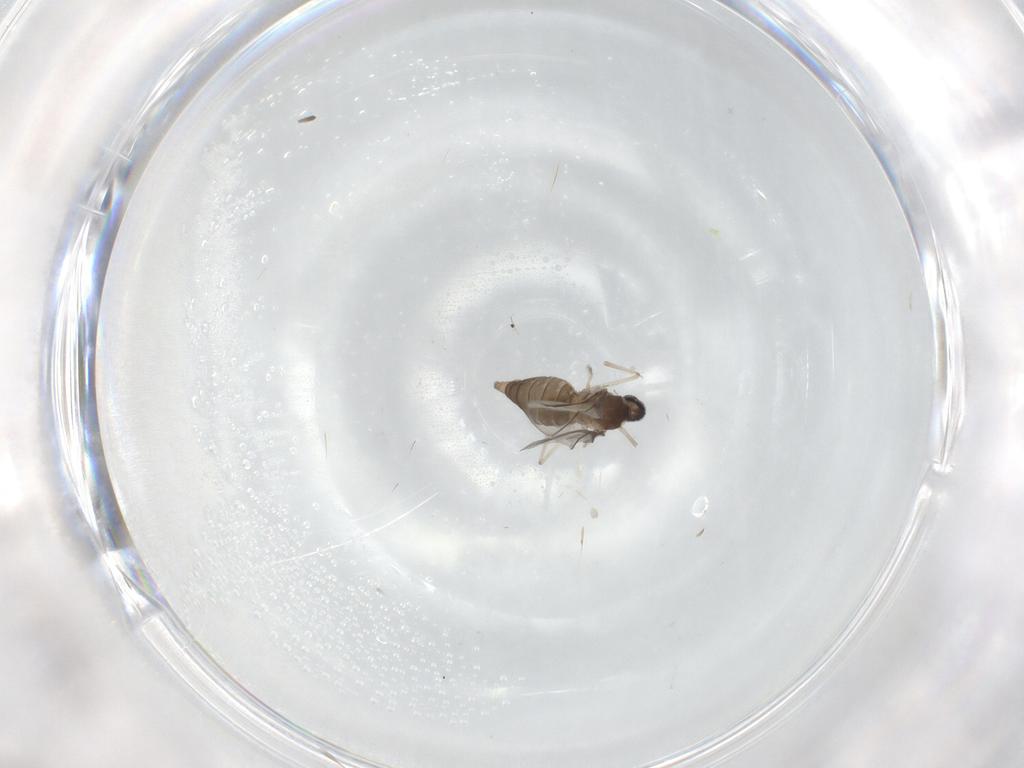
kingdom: Animalia
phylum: Arthropoda
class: Insecta
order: Diptera
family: Cecidomyiidae
